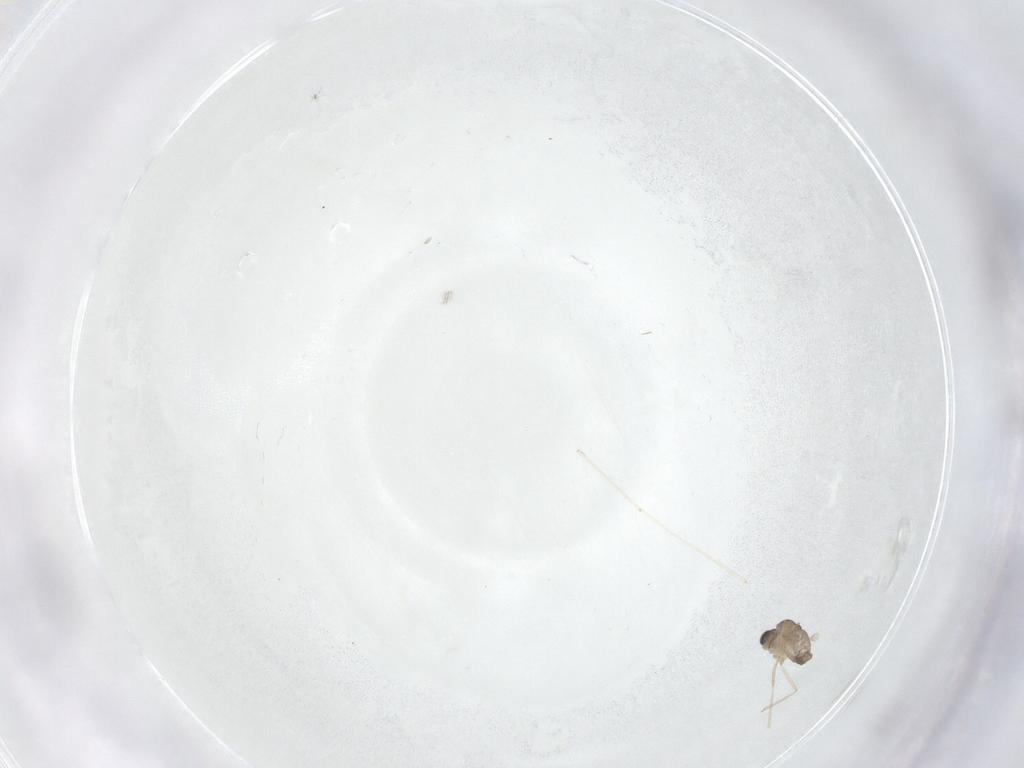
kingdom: Animalia
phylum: Arthropoda
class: Insecta
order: Diptera
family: Cecidomyiidae
